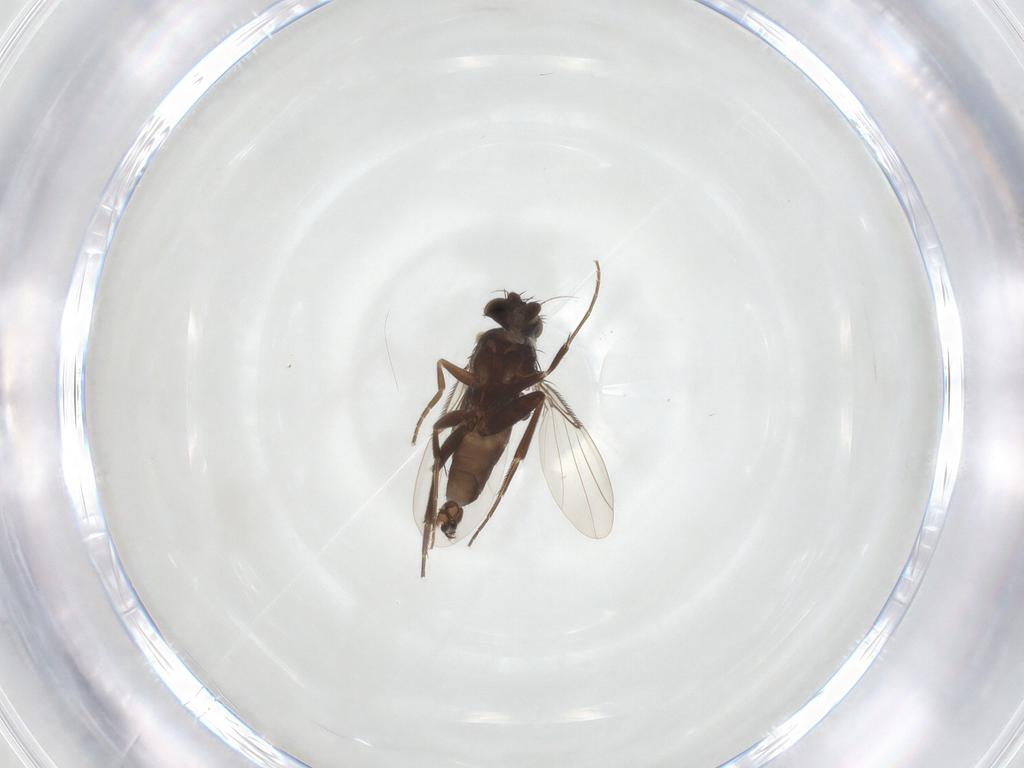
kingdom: Animalia
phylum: Arthropoda
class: Insecta
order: Diptera
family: Phoridae
